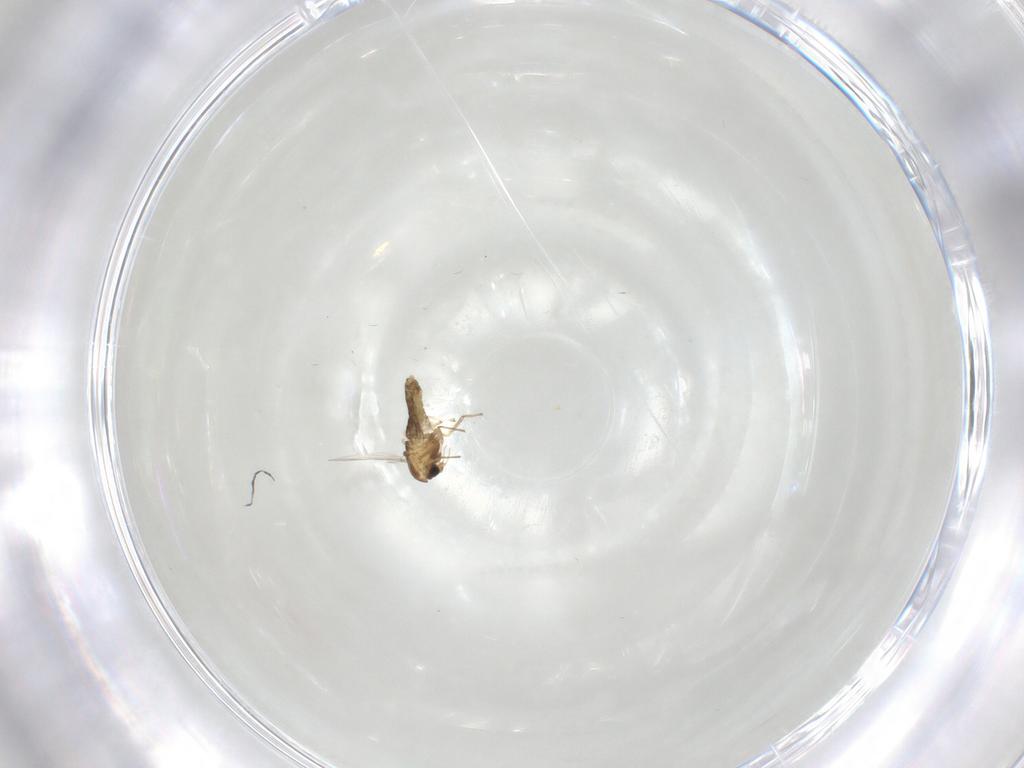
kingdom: Animalia
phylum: Arthropoda
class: Insecta
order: Diptera
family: Chironomidae
